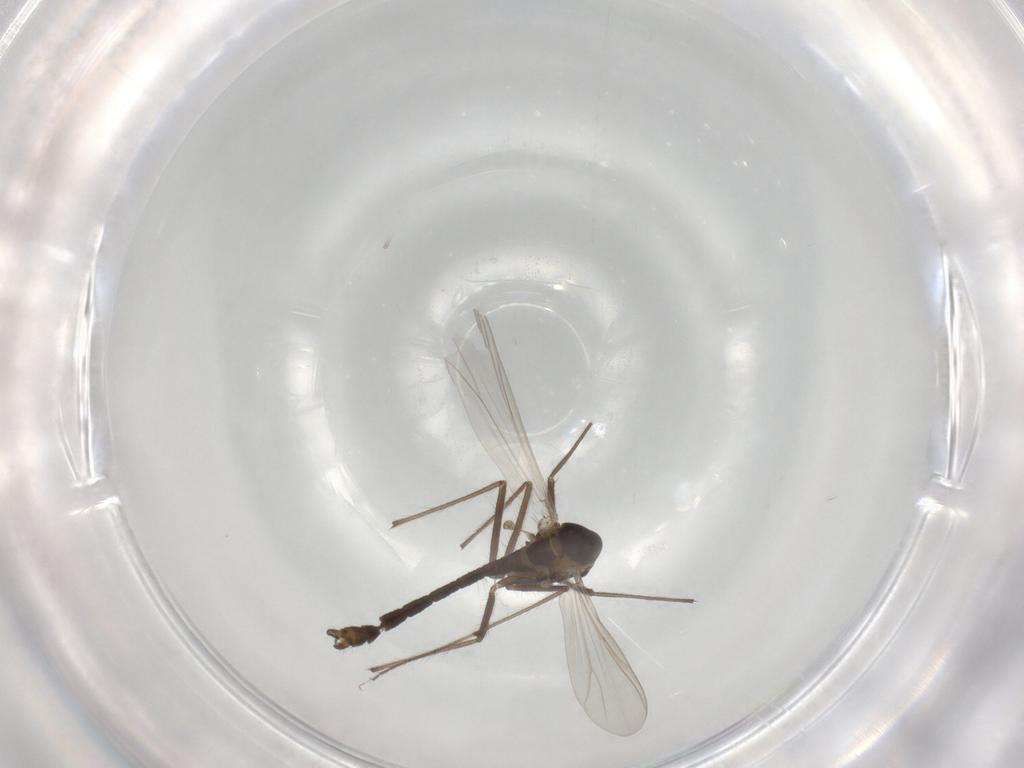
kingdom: Animalia
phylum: Arthropoda
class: Insecta
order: Diptera
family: Chironomidae
